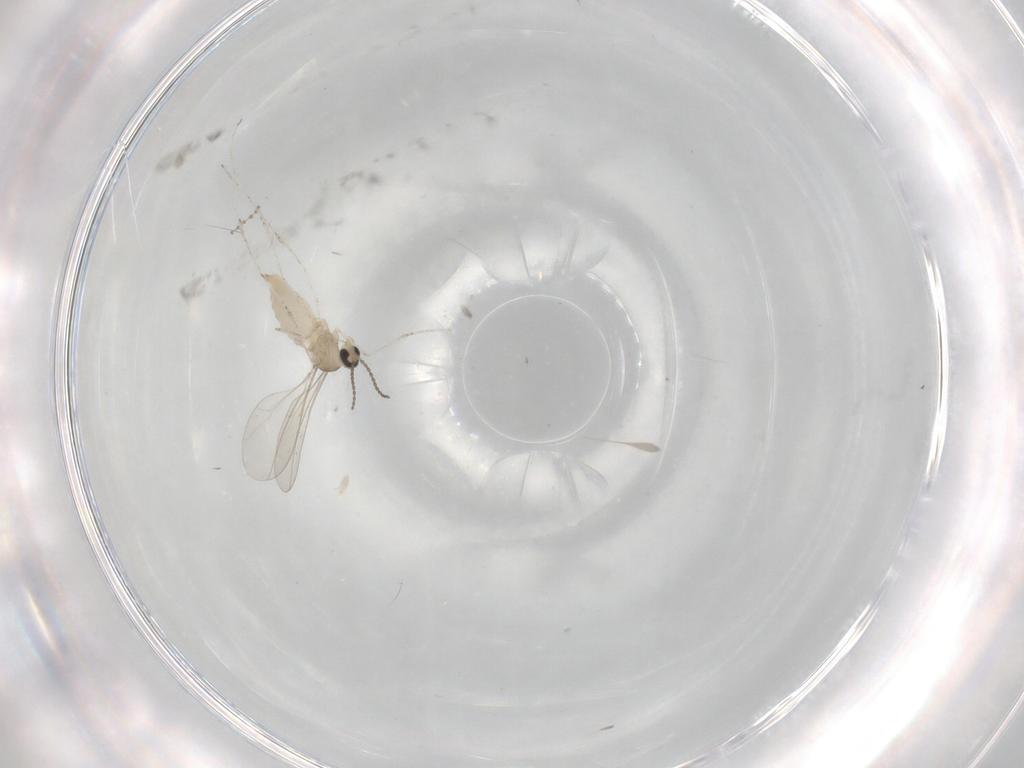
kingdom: Animalia
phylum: Arthropoda
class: Insecta
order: Diptera
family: Cecidomyiidae
